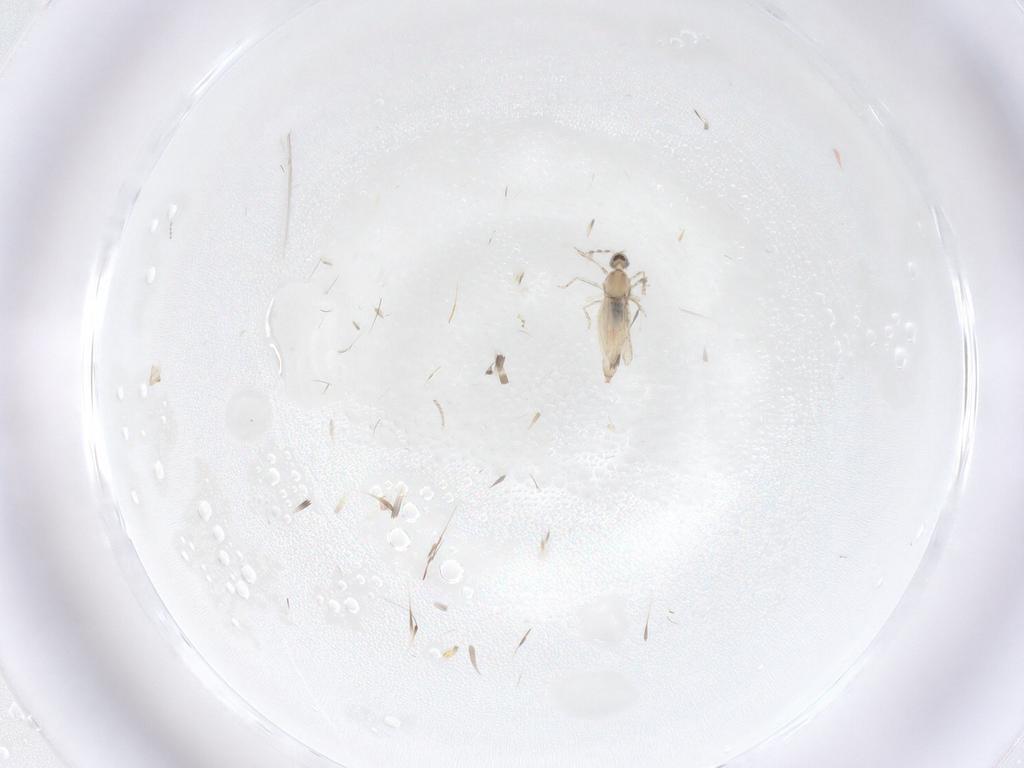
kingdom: Animalia
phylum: Arthropoda
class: Insecta
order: Diptera
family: Cecidomyiidae
